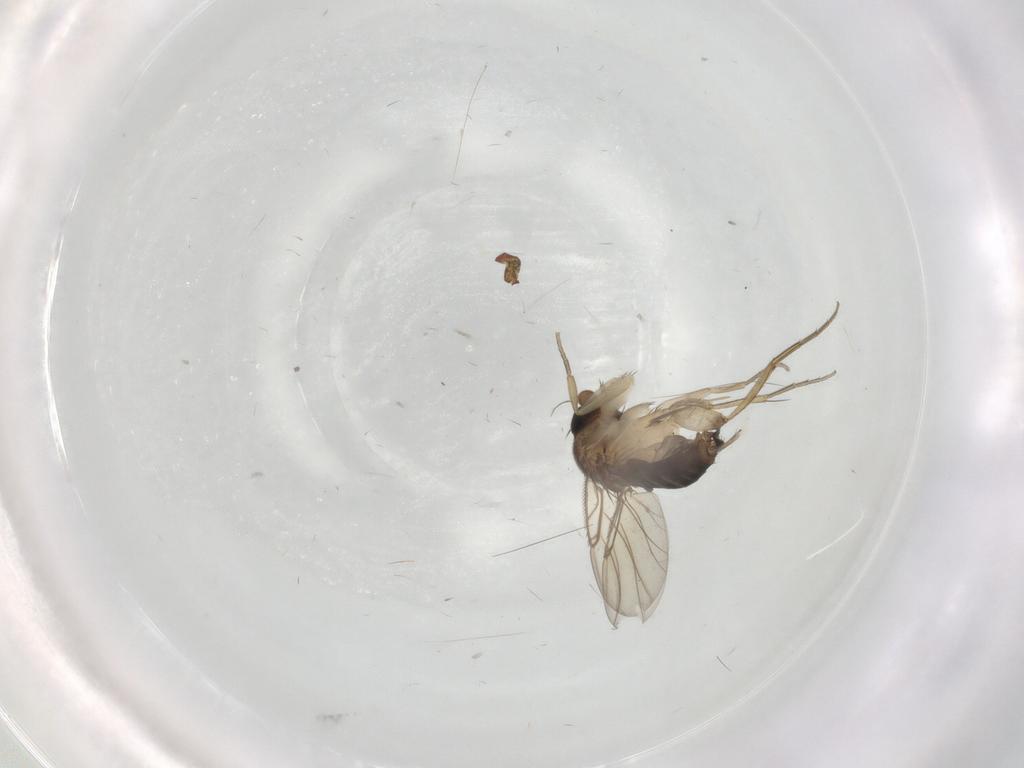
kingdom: Animalia
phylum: Arthropoda
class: Insecta
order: Diptera
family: Phoridae
